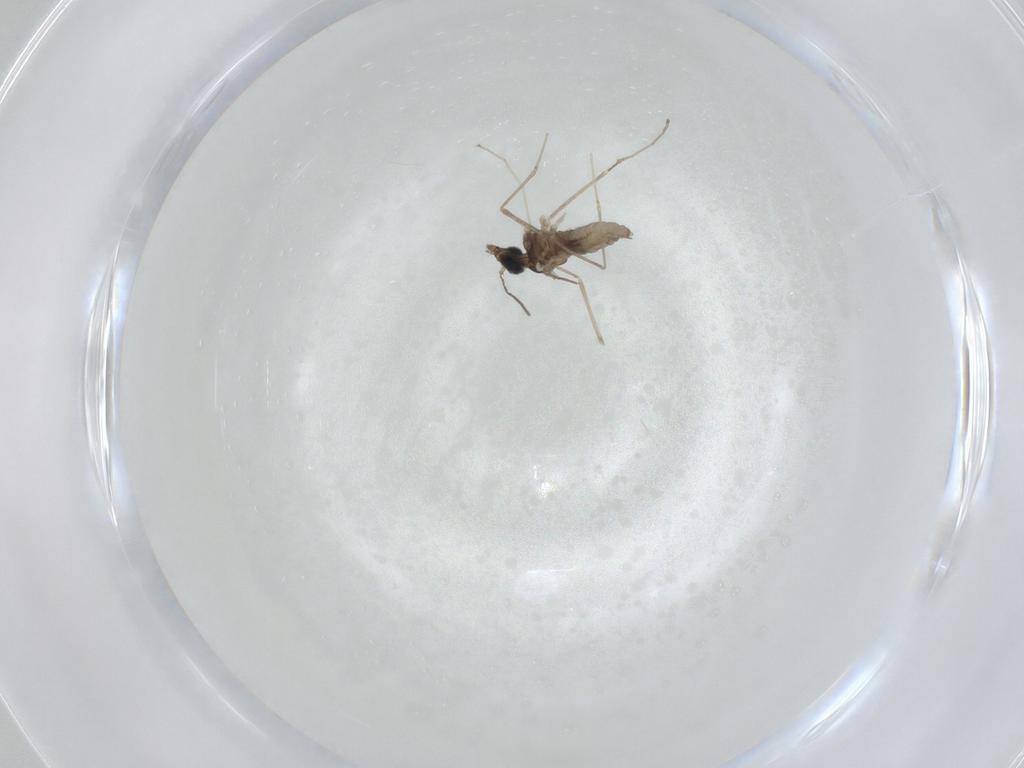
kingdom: Animalia
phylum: Arthropoda
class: Insecta
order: Diptera
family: Cecidomyiidae
